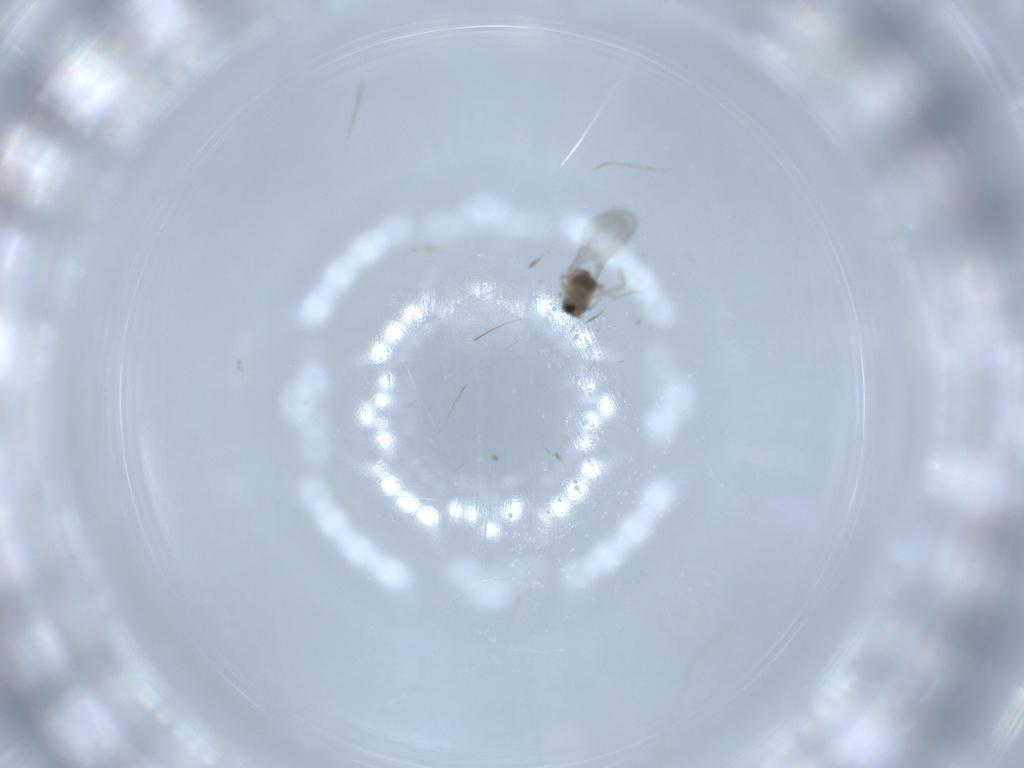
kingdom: Animalia
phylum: Arthropoda
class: Insecta
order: Diptera
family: Cecidomyiidae
